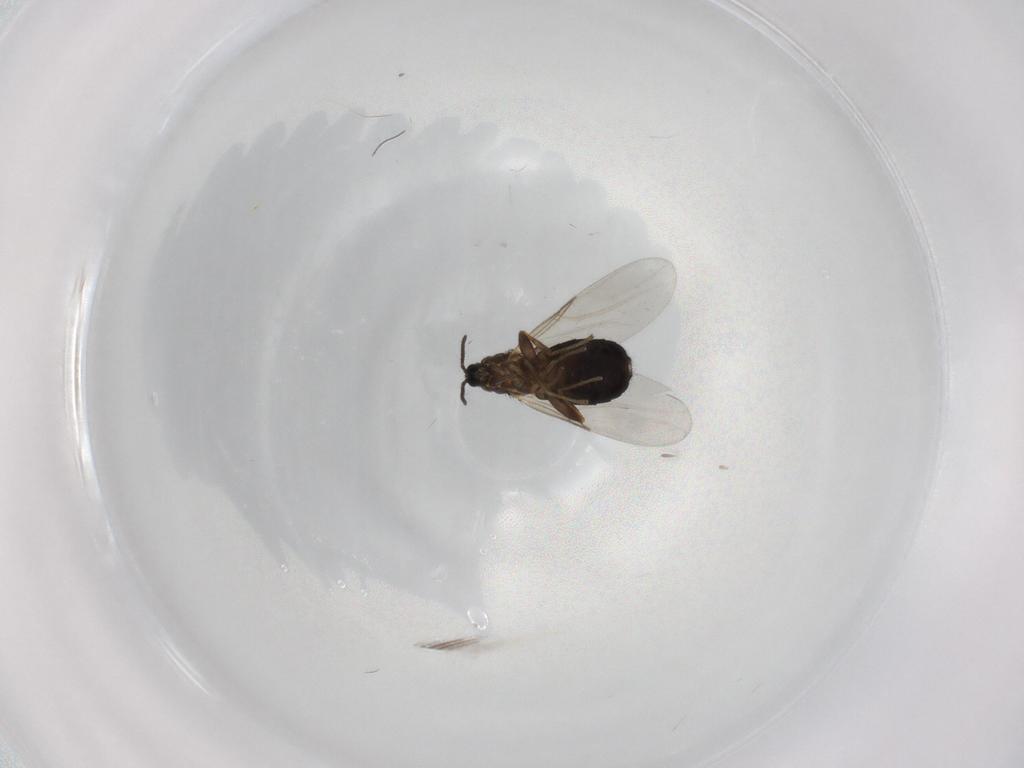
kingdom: Animalia
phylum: Arthropoda
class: Insecta
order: Diptera
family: Scatopsidae
